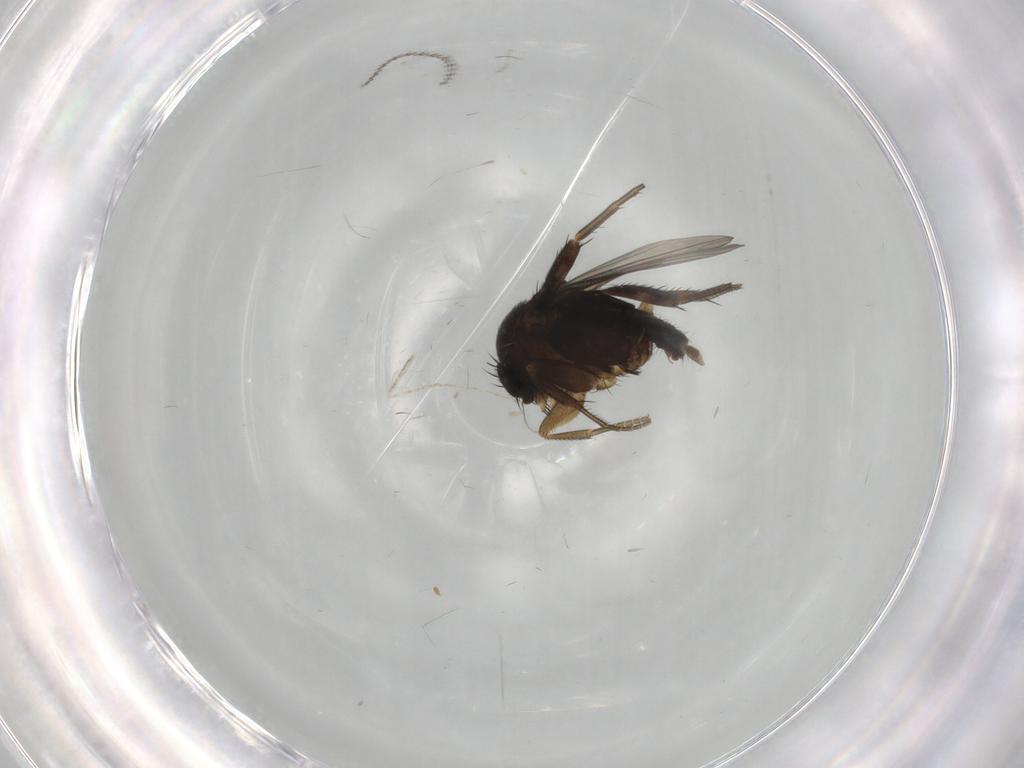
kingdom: Animalia
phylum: Arthropoda
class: Insecta
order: Diptera
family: Phoridae
